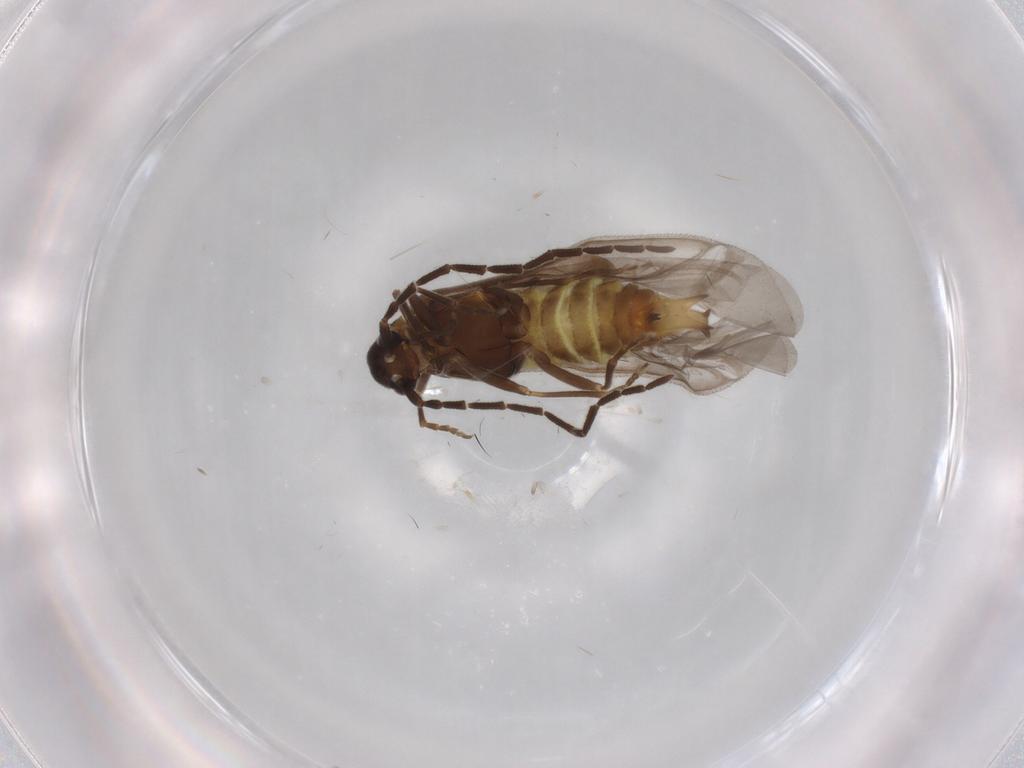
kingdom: Animalia
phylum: Arthropoda
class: Insecta
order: Coleoptera
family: Cantharidae
